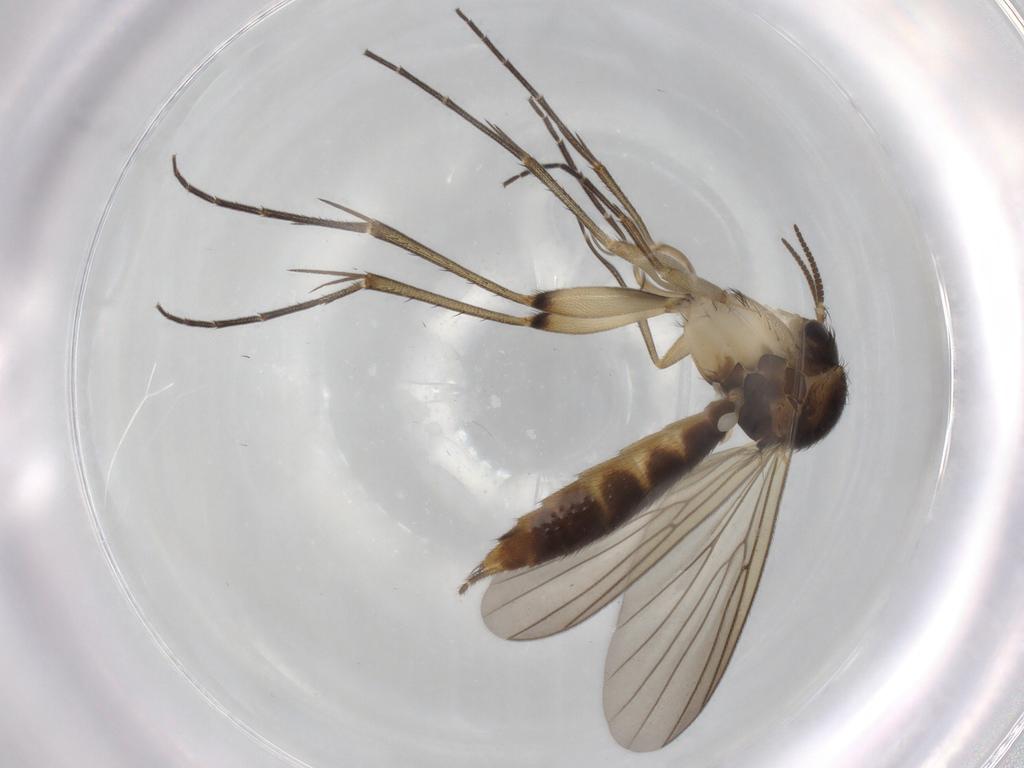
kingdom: Animalia
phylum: Arthropoda
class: Insecta
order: Diptera
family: Mycetophilidae
